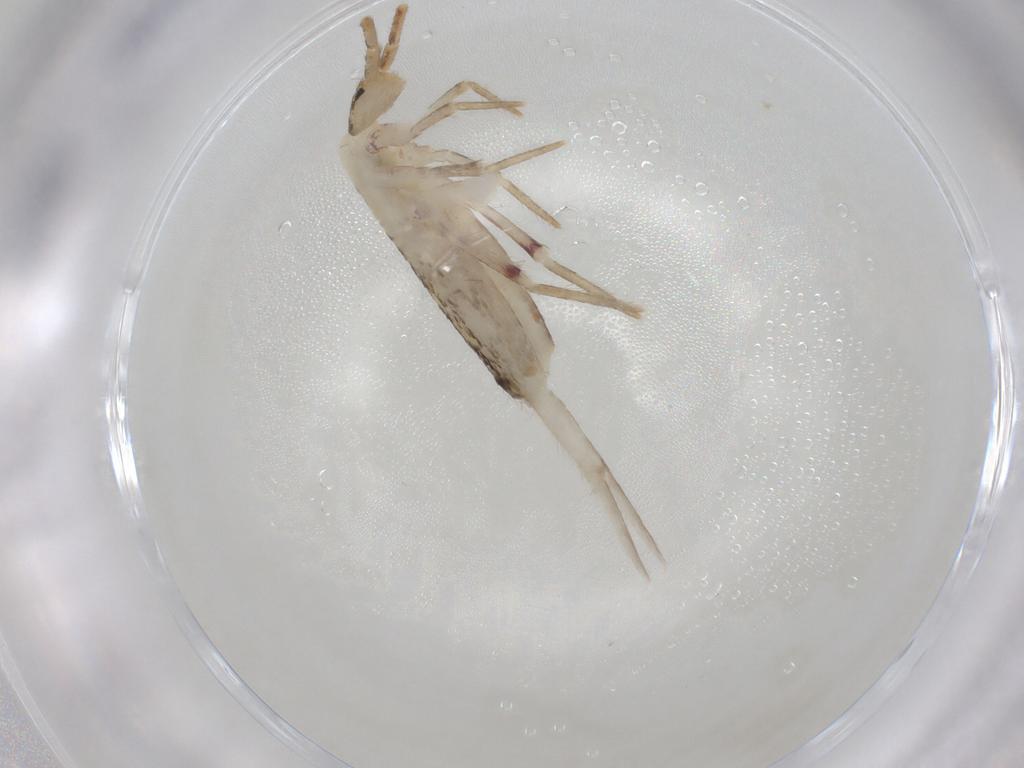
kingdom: Animalia
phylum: Arthropoda
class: Collembola
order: Poduromorpha
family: Hypogastruridae
